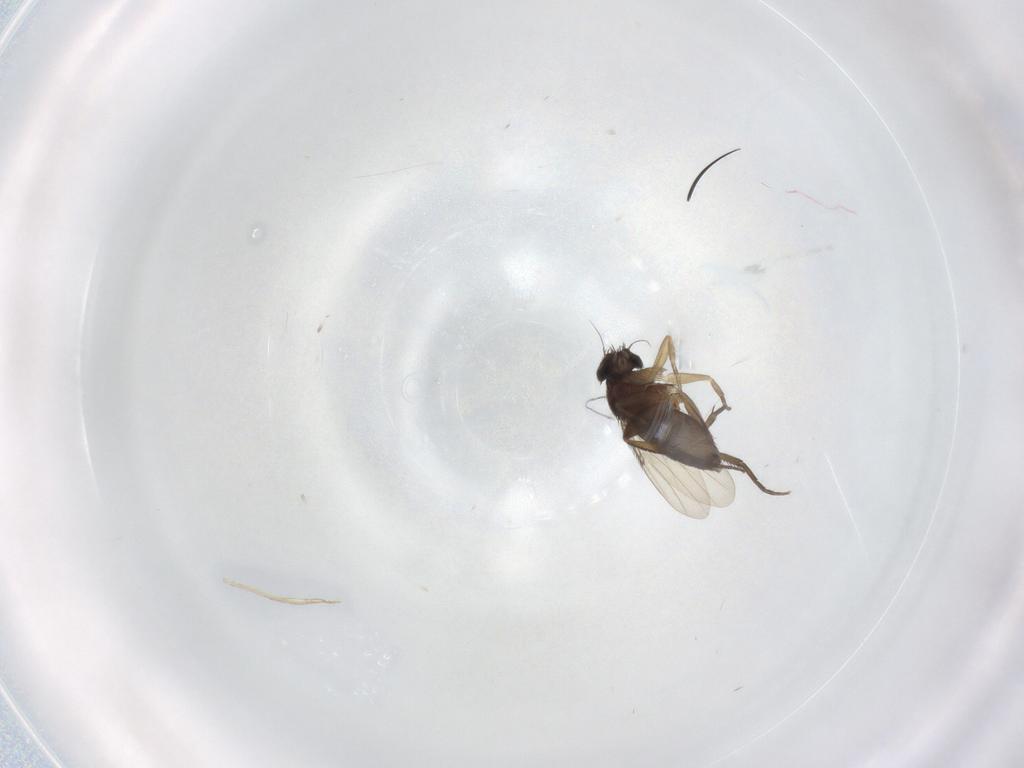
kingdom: Animalia
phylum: Arthropoda
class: Insecta
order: Diptera
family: Phoridae
